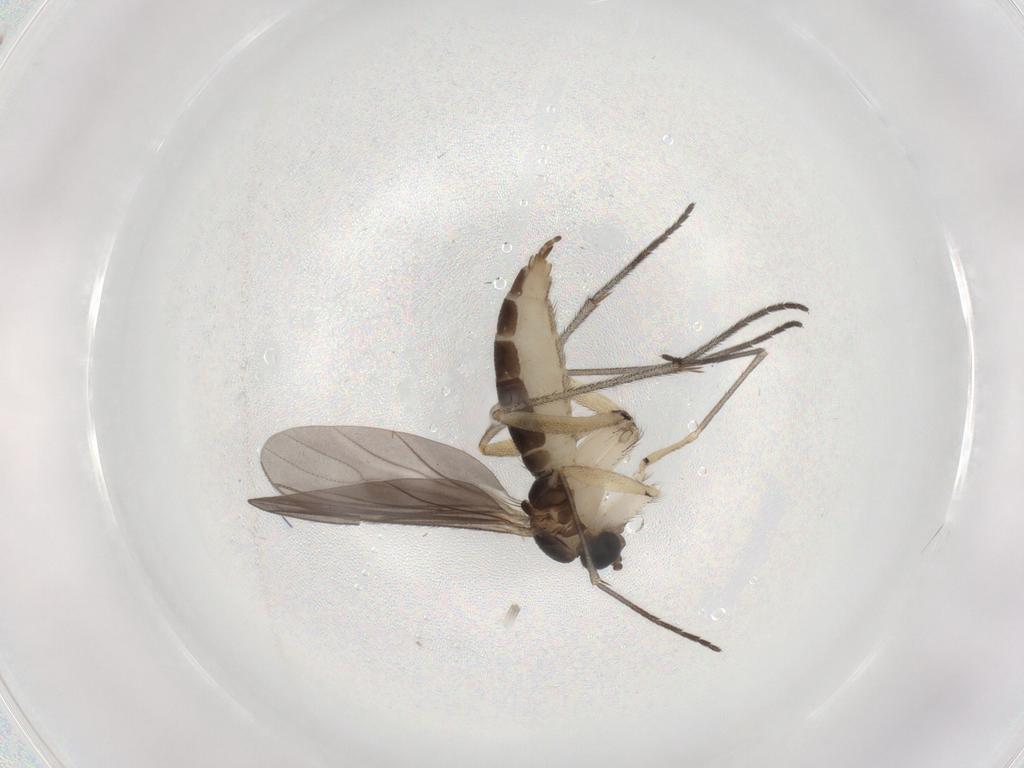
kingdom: Animalia
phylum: Arthropoda
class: Insecta
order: Diptera
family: Sciaridae
